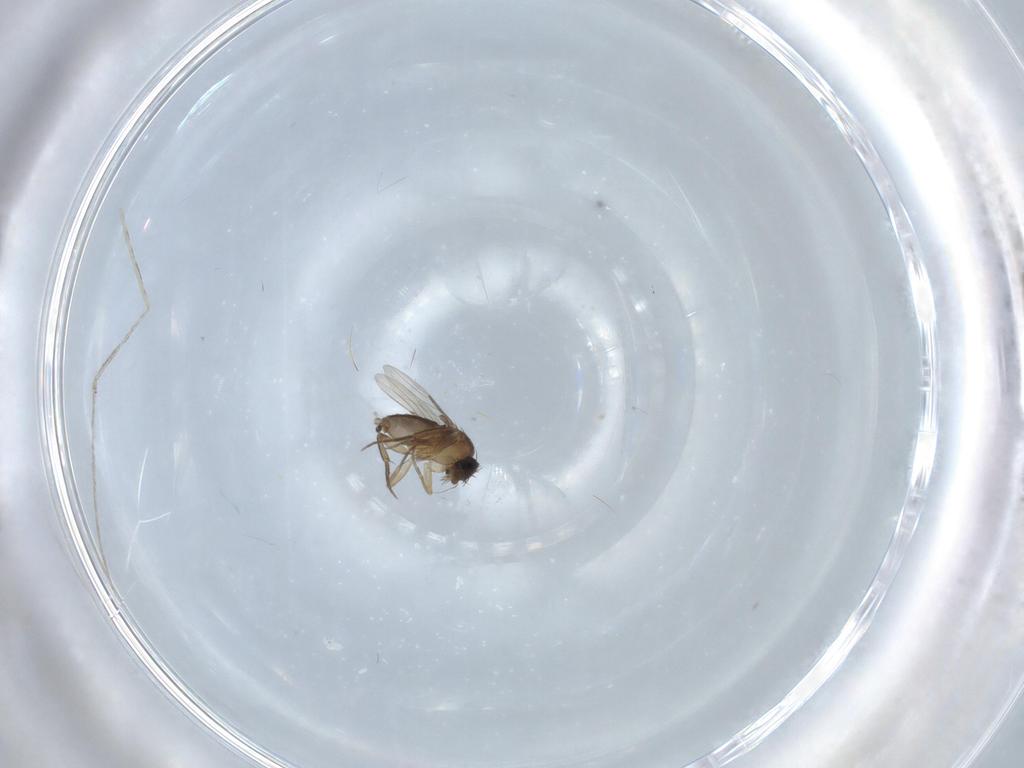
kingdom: Animalia
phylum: Arthropoda
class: Insecta
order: Diptera
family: Phoridae
